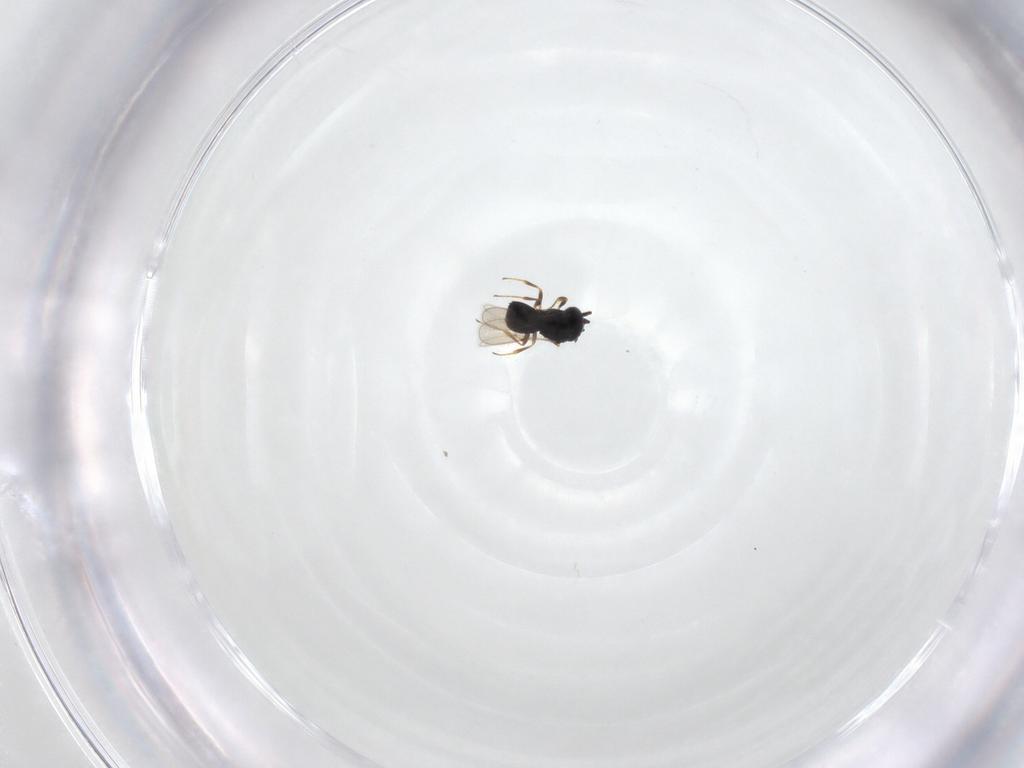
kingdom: Animalia
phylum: Arthropoda
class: Insecta
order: Hymenoptera
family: Scelionidae
